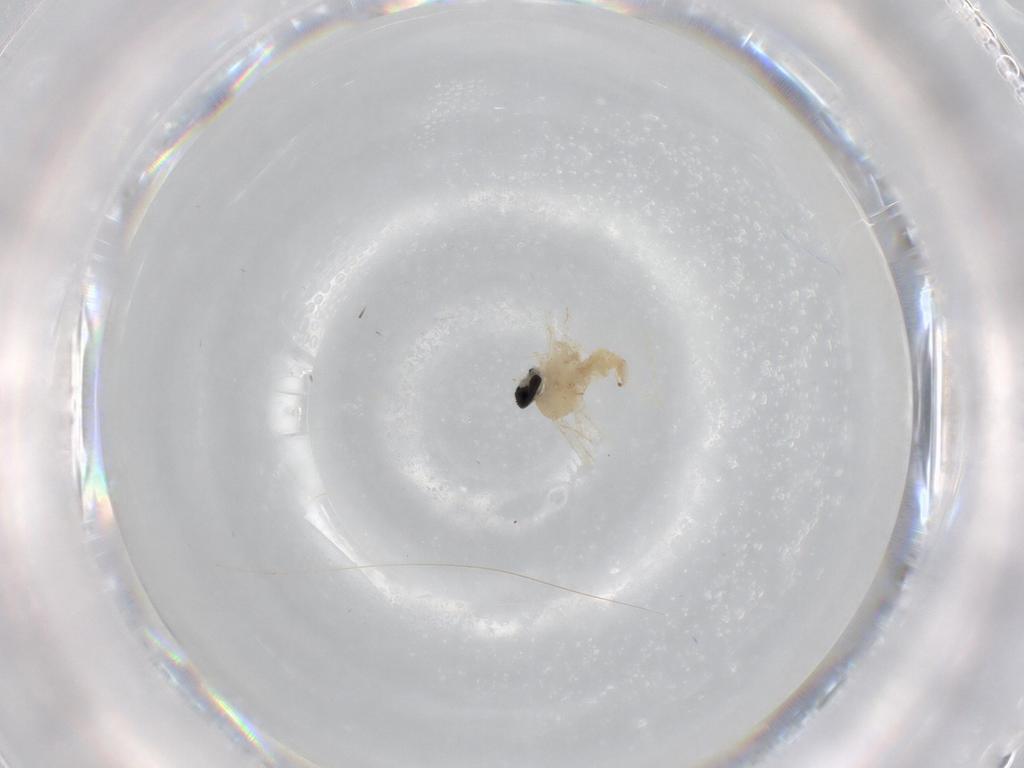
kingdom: Animalia
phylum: Arthropoda
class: Insecta
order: Diptera
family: Cecidomyiidae
